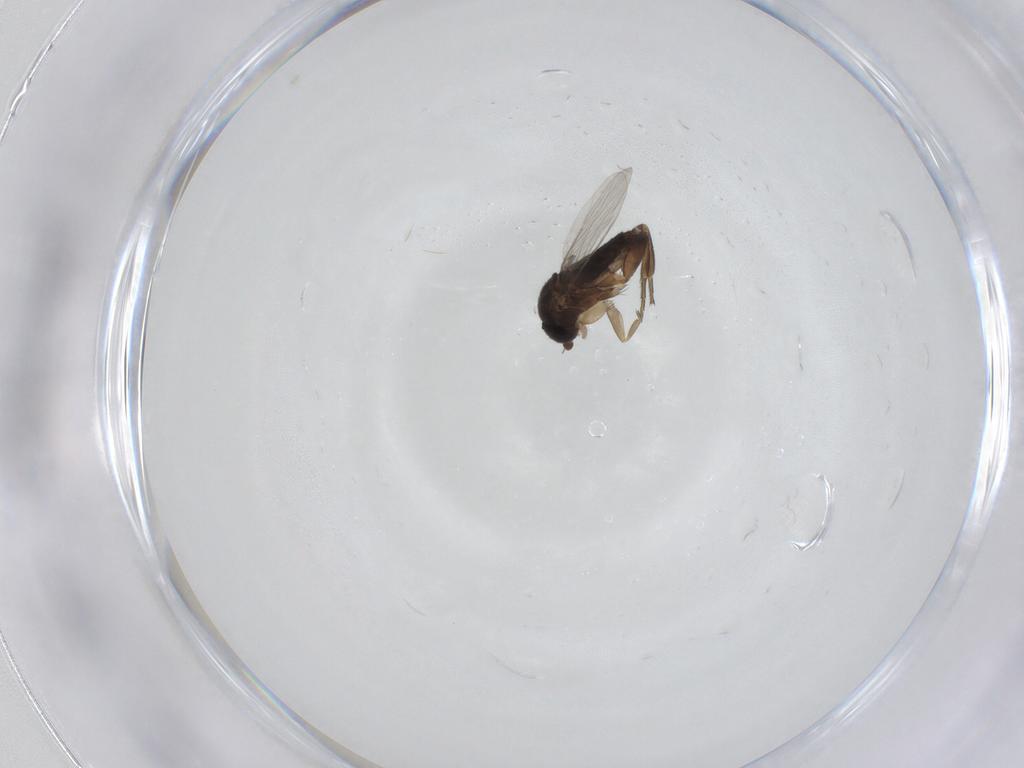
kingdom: Animalia
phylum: Arthropoda
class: Insecta
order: Diptera
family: Phoridae
